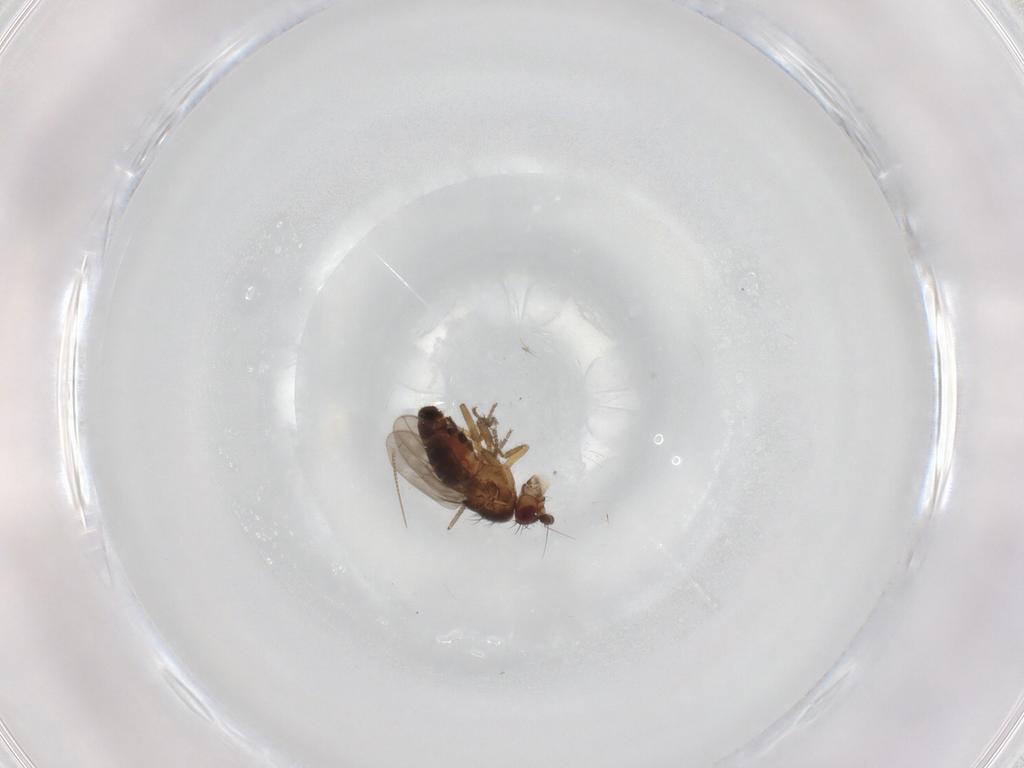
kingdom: Animalia
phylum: Arthropoda
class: Insecta
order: Diptera
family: Sphaeroceridae
